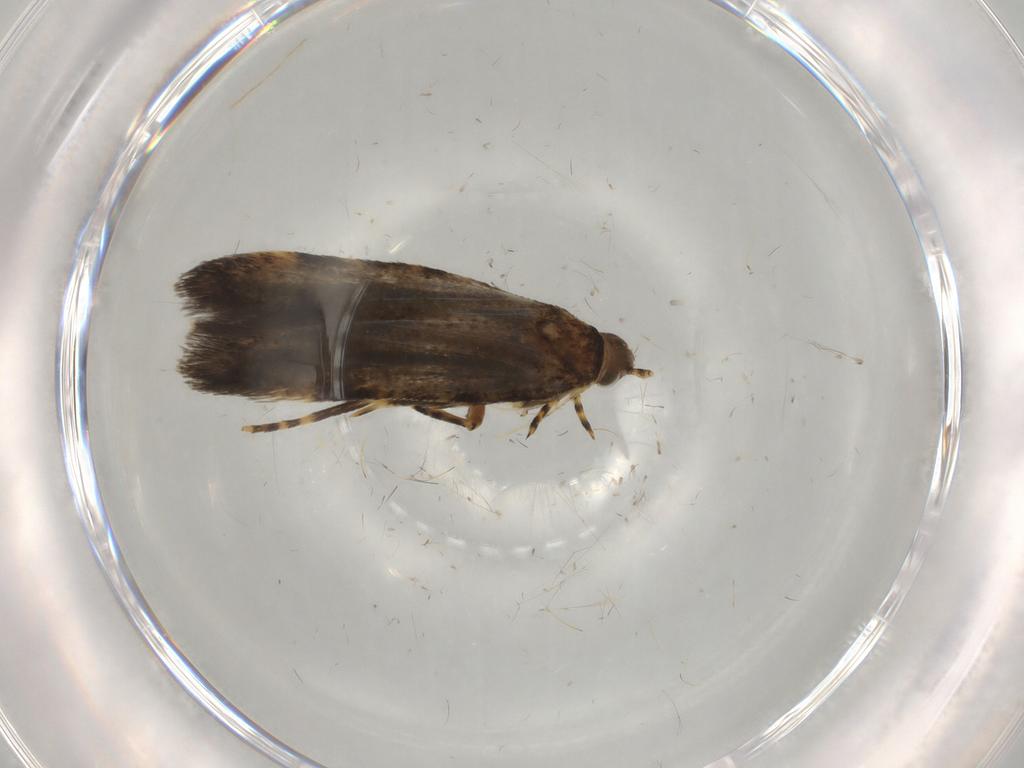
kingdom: Animalia
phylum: Arthropoda
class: Insecta
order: Lepidoptera
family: Oecophoridae
